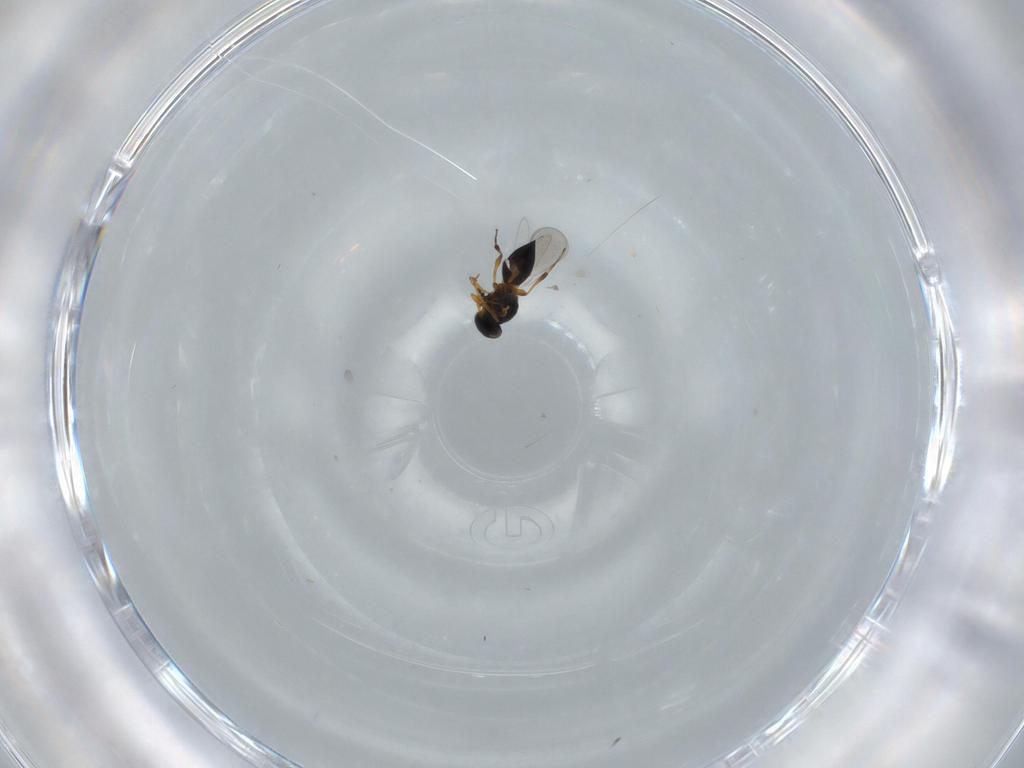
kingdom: Animalia
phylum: Arthropoda
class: Insecta
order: Hymenoptera
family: Platygastridae
